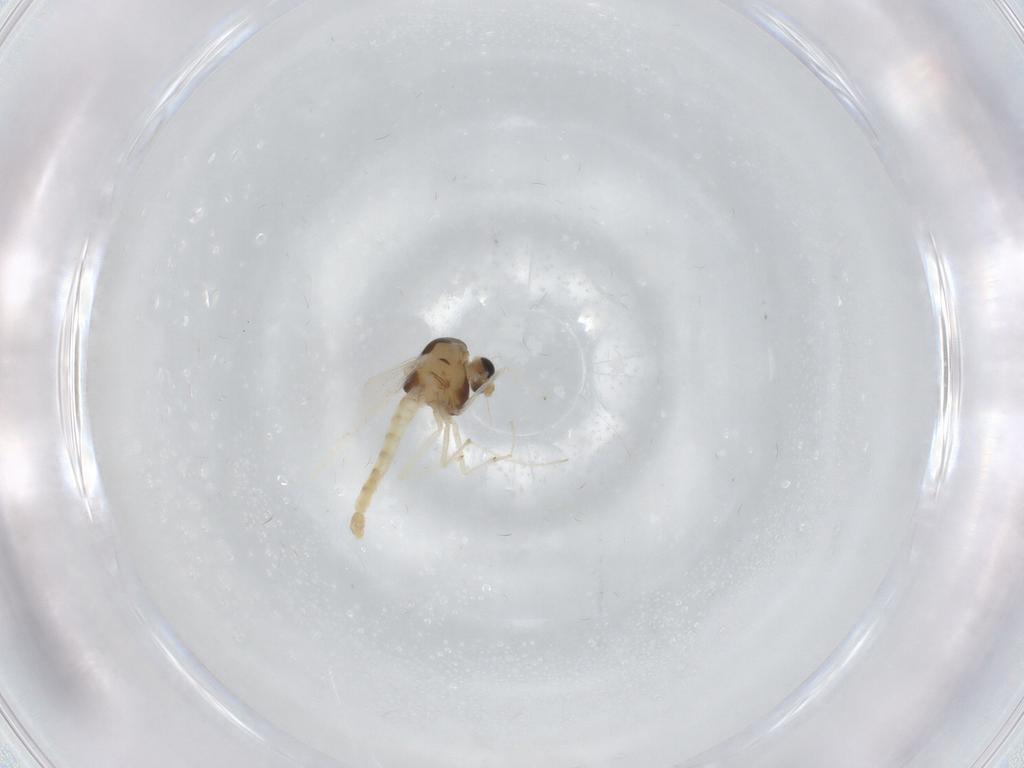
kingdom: Animalia
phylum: Arthropoda
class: Insecta
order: Diptera
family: Chironomidae
